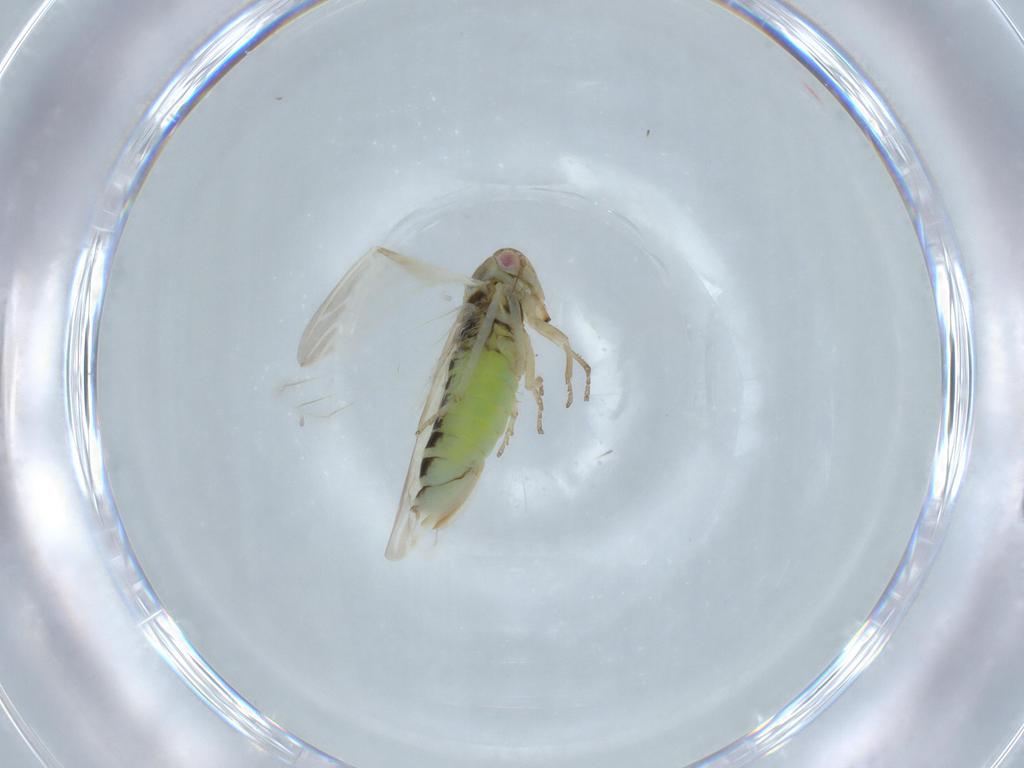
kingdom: Animalia
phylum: Arthropoda
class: Insecta
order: Hemiptera
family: Cicadellidae
